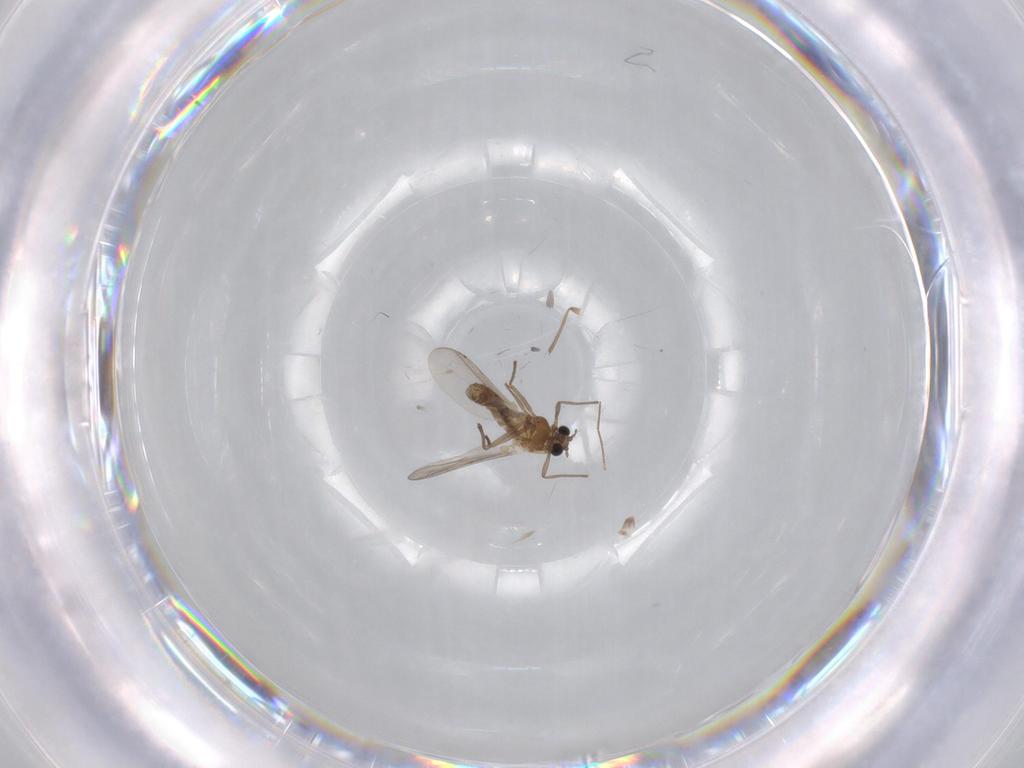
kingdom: Animalia
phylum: Arthropoda
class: Insecta
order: Diptera
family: Chironomidae
